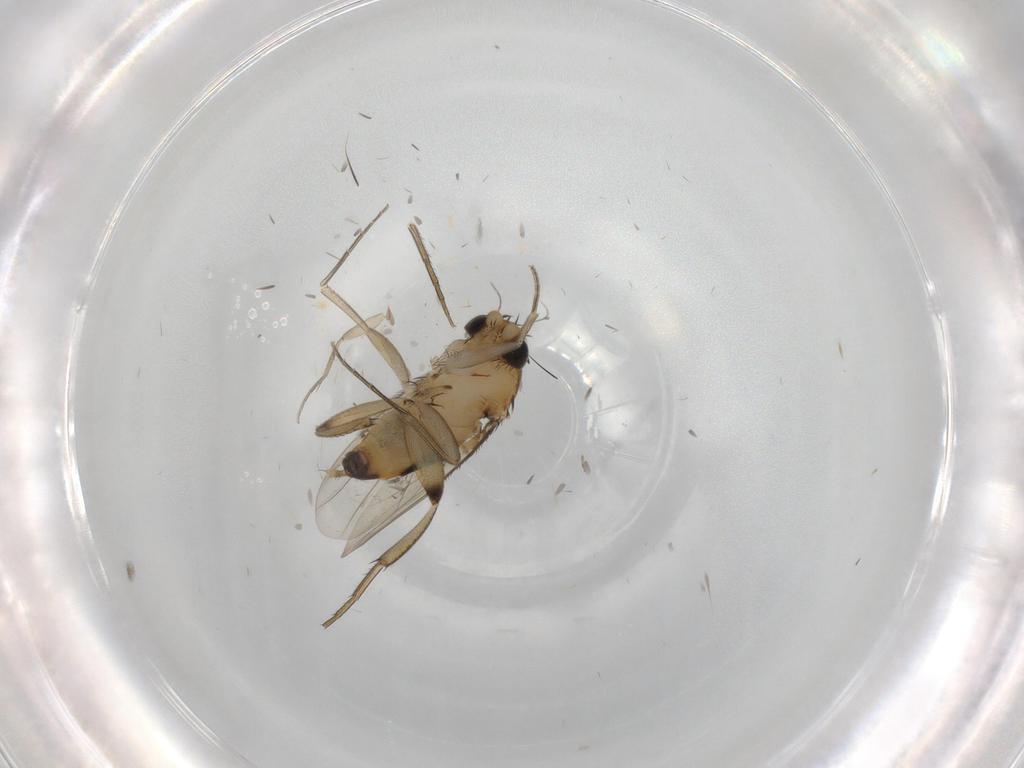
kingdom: Animalia
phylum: Arthropoda
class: Insecta
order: Diptera
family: Phoridae
